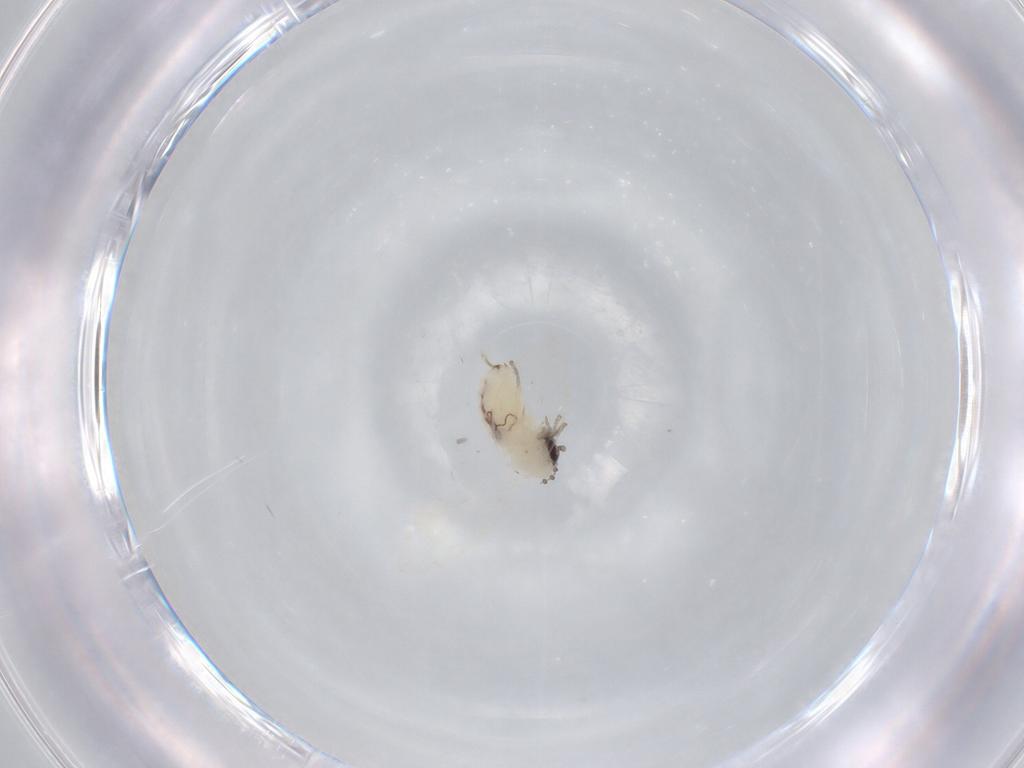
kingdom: Animalia
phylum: Arthropoda
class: Insecta
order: Diptera
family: Psychodidae
